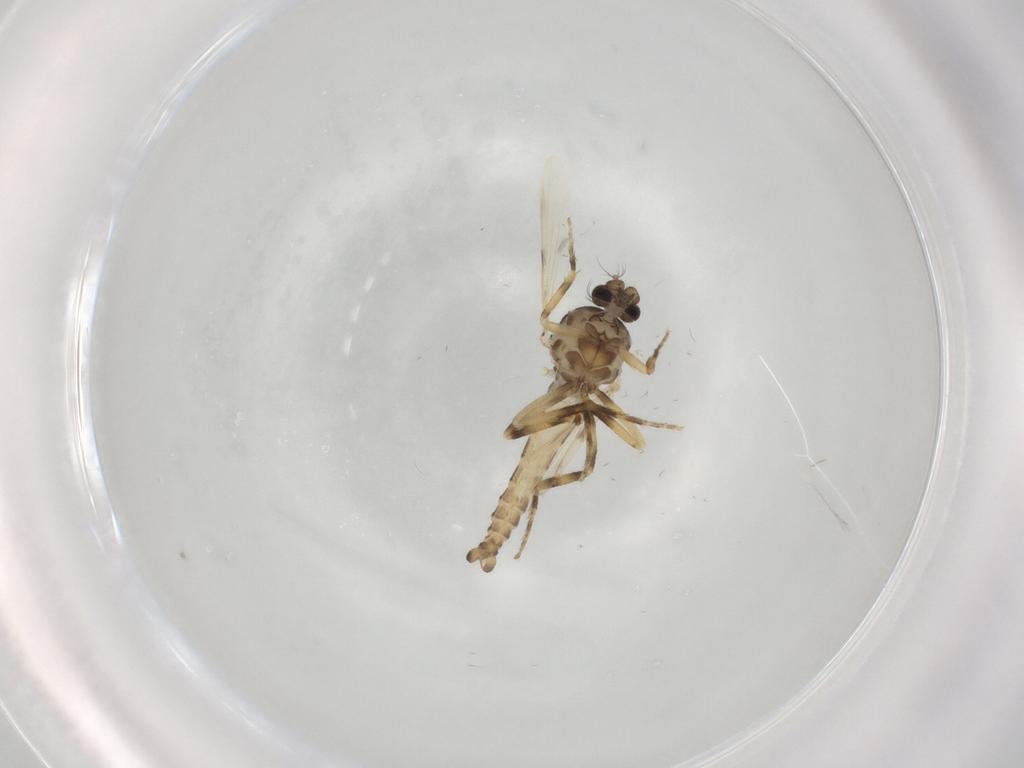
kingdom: Animalia
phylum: Arthropoda
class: Insecta
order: Diptera
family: Ceratopogonidae
